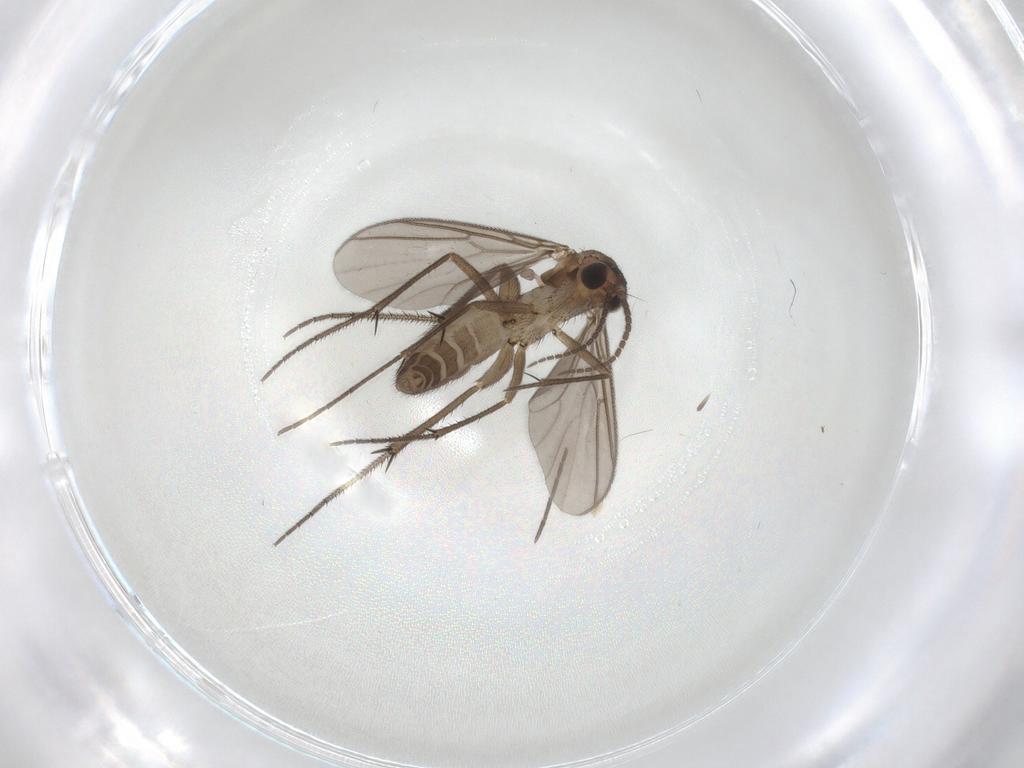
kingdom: Animalia
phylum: Arthropoda
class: Insecta
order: Diptera
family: Mycetophilidae
